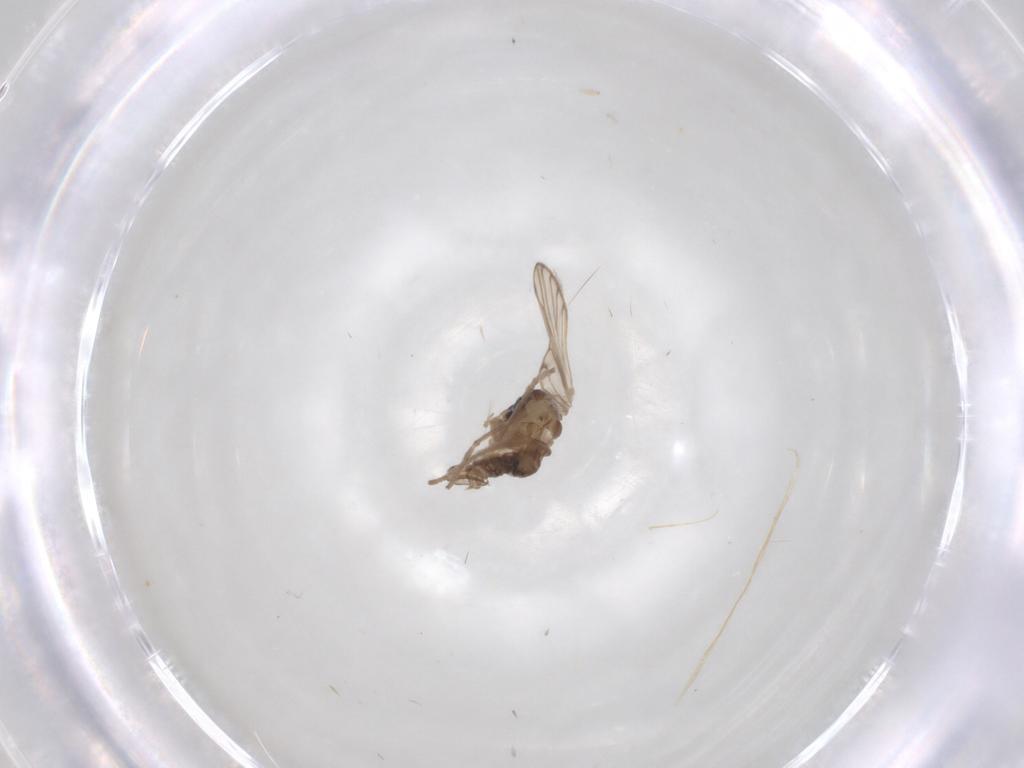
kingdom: Animalia
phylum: Arthropoda
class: Insecta
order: Diptera
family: Psychodidae
